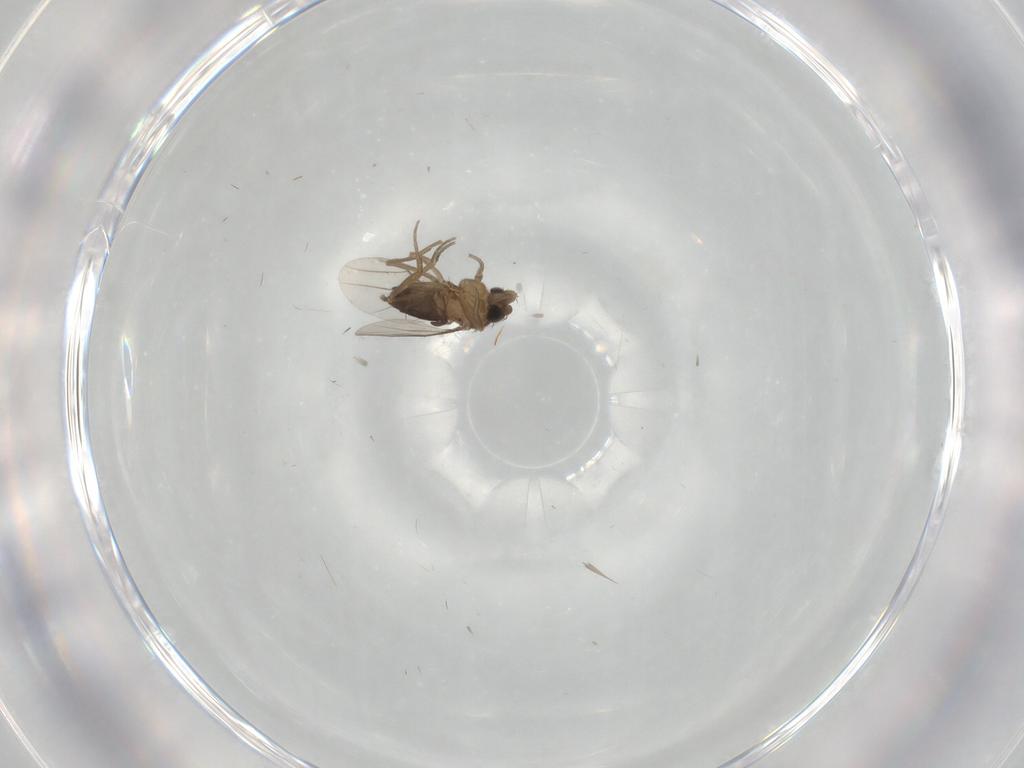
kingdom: Animalia
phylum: Arthropoda
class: Insecta
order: Diptera
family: Phoridae
